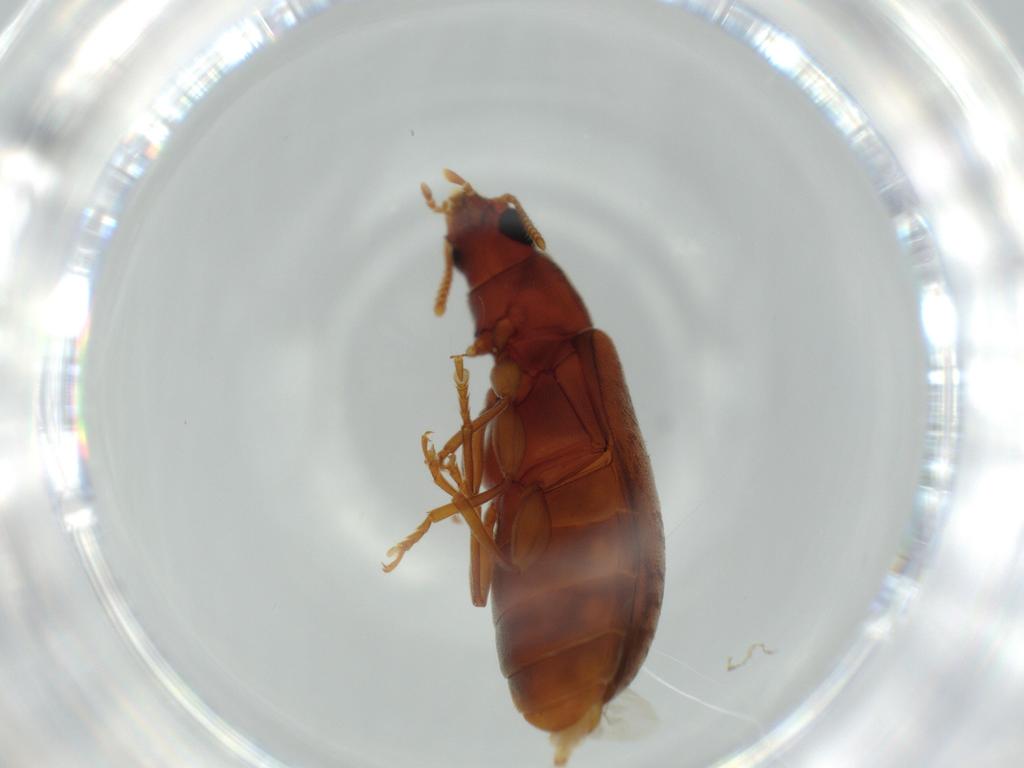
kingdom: Animalia
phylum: Arthropoda
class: Insecta
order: Coleoptera
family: Mycteridae
